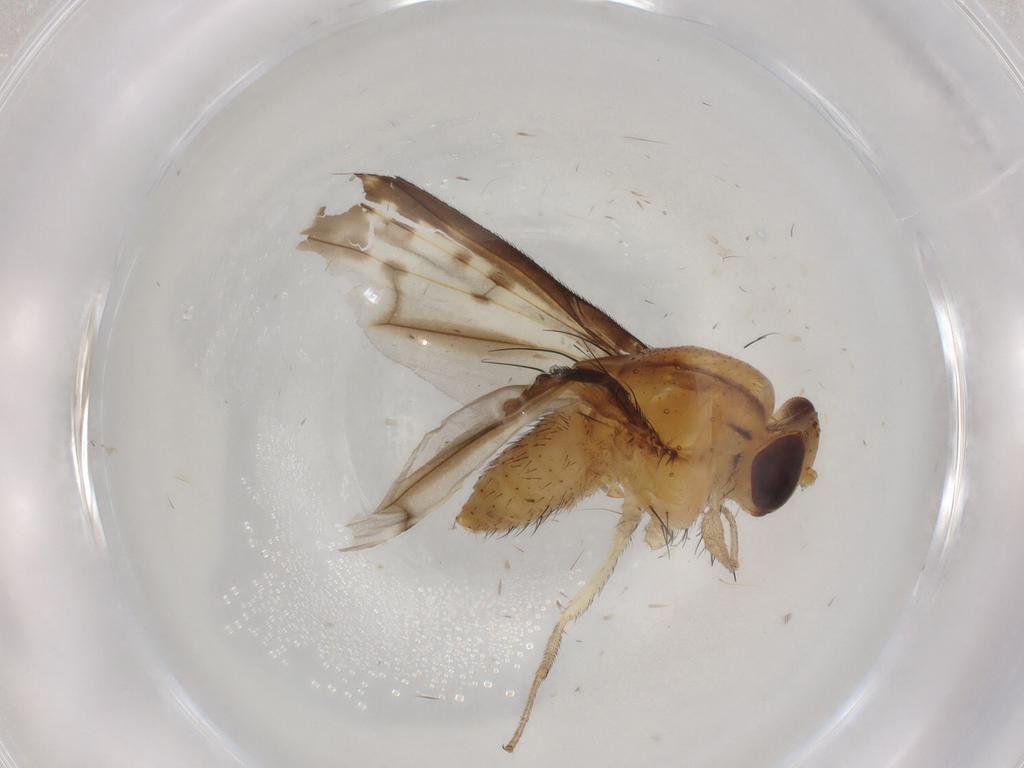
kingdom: Animalia
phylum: Arthropoda
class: Insecta
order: Diptera
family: Ceratopogonidae
